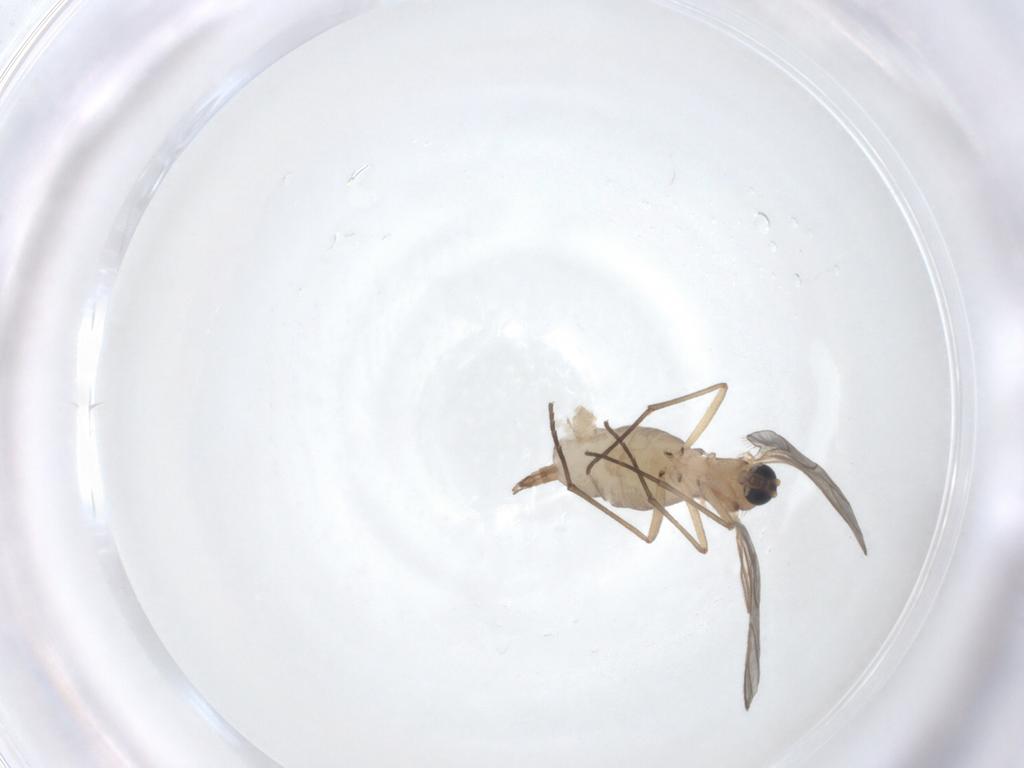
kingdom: Animalia
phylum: Arthropoda
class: Insecta
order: Diptera
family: Sciaridae
